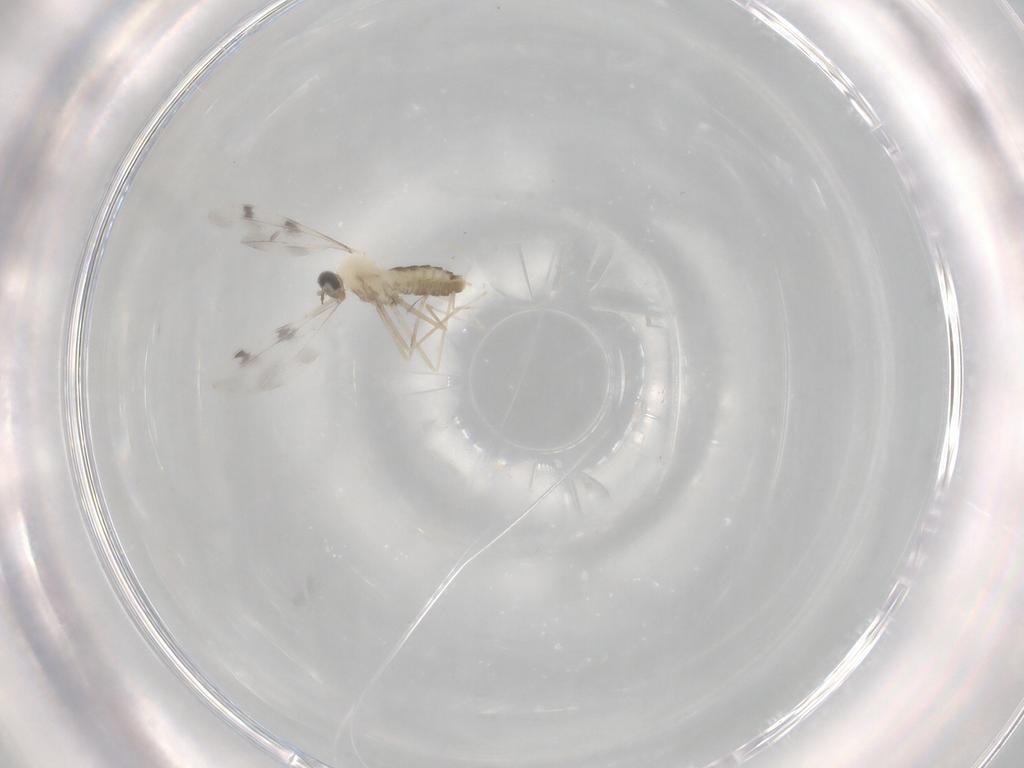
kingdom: Animalia
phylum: Arthropoda
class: Insecta
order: Diptera
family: Cecidomyiidae
